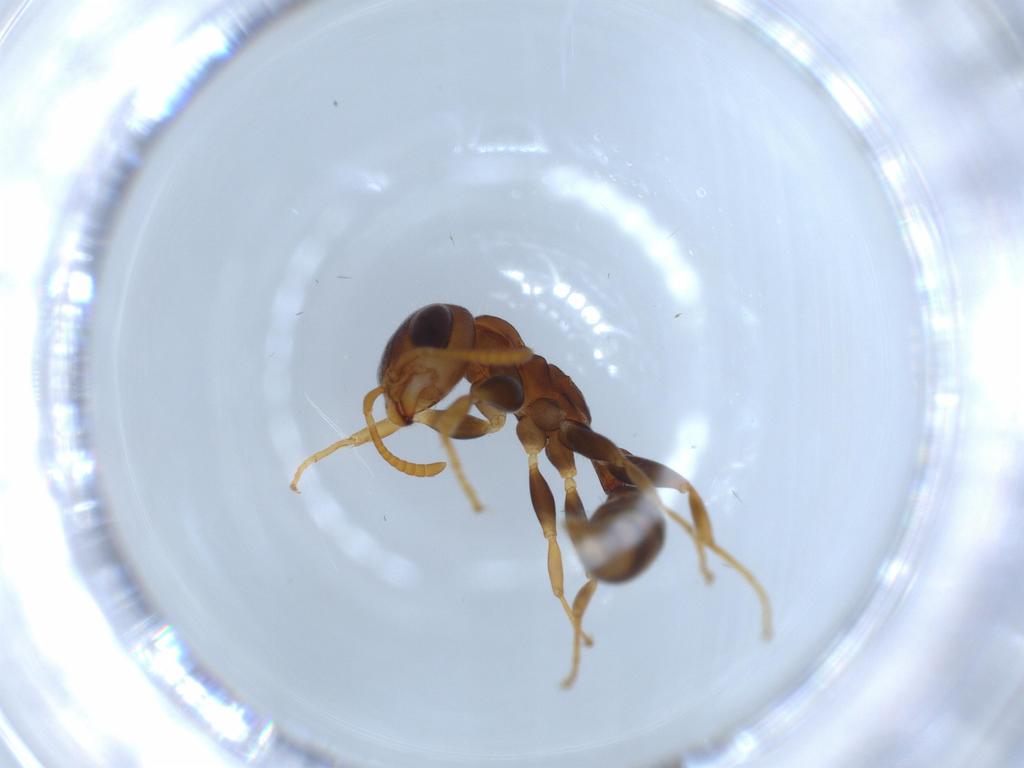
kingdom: Animalia
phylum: Arthropoda
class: Insecta
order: Hymenoptera
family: Formicidae
